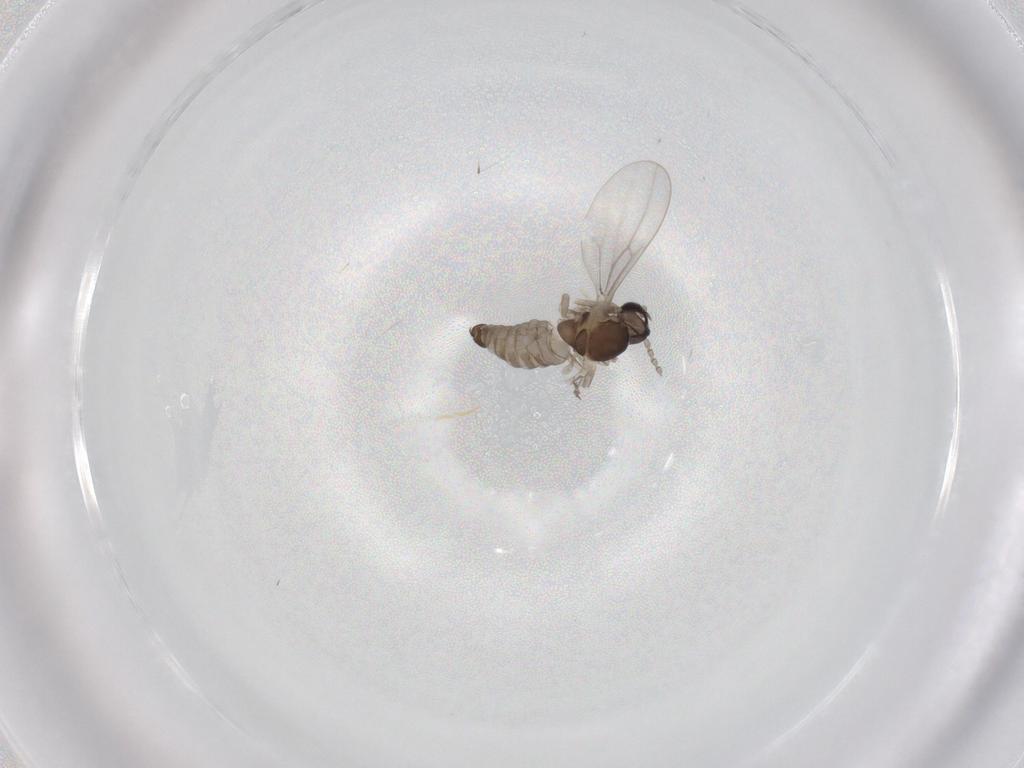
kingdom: Animalia
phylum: Arthropoda
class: Insecta
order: Diptera
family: Cecidomyiidae
